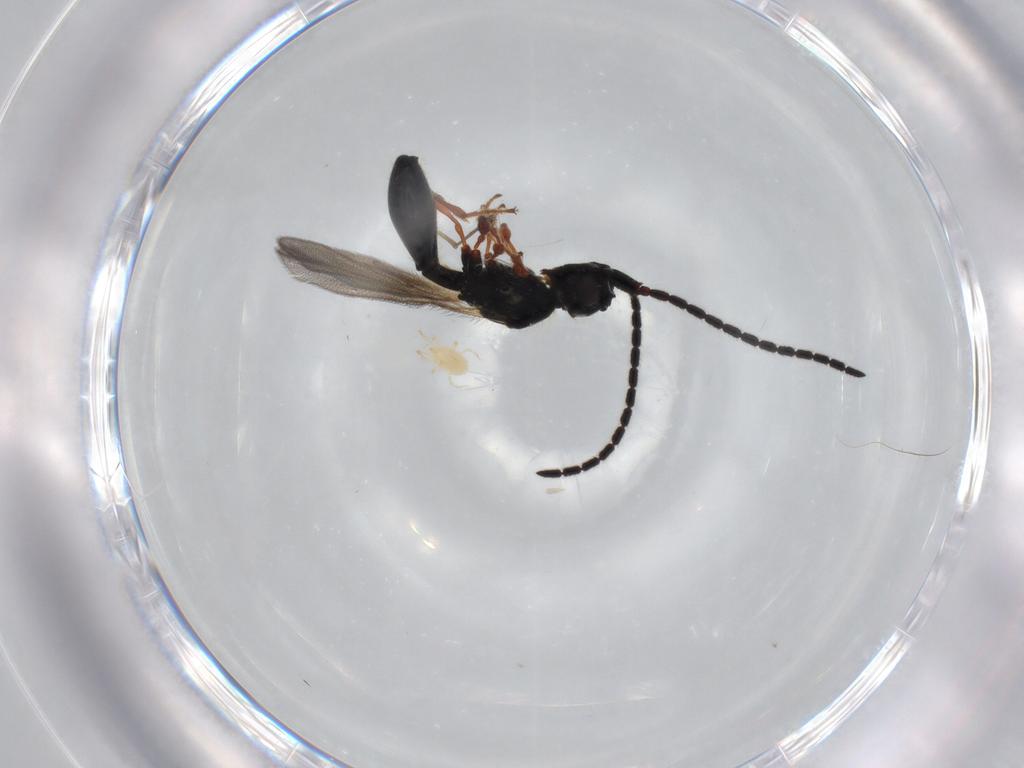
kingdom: Animalia
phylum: Arthropoda
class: Insecta
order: Hymenoptera
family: Diapriidae
